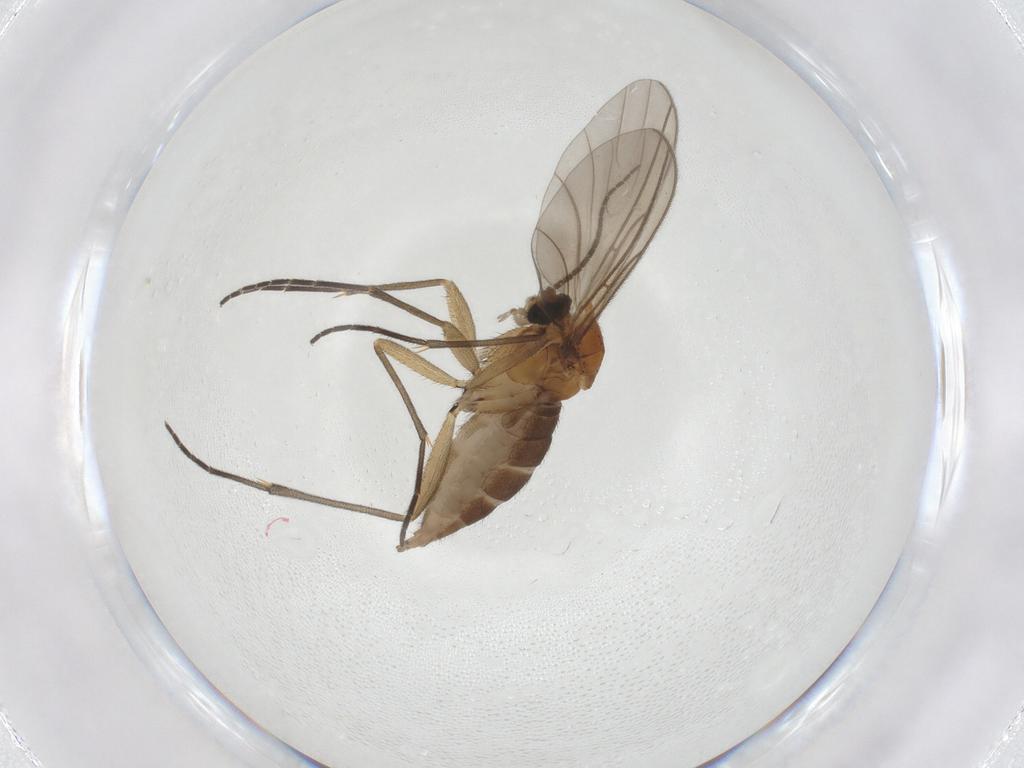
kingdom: Animalia
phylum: Arthropoda
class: Insecta
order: Diptera
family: Sciaridae
